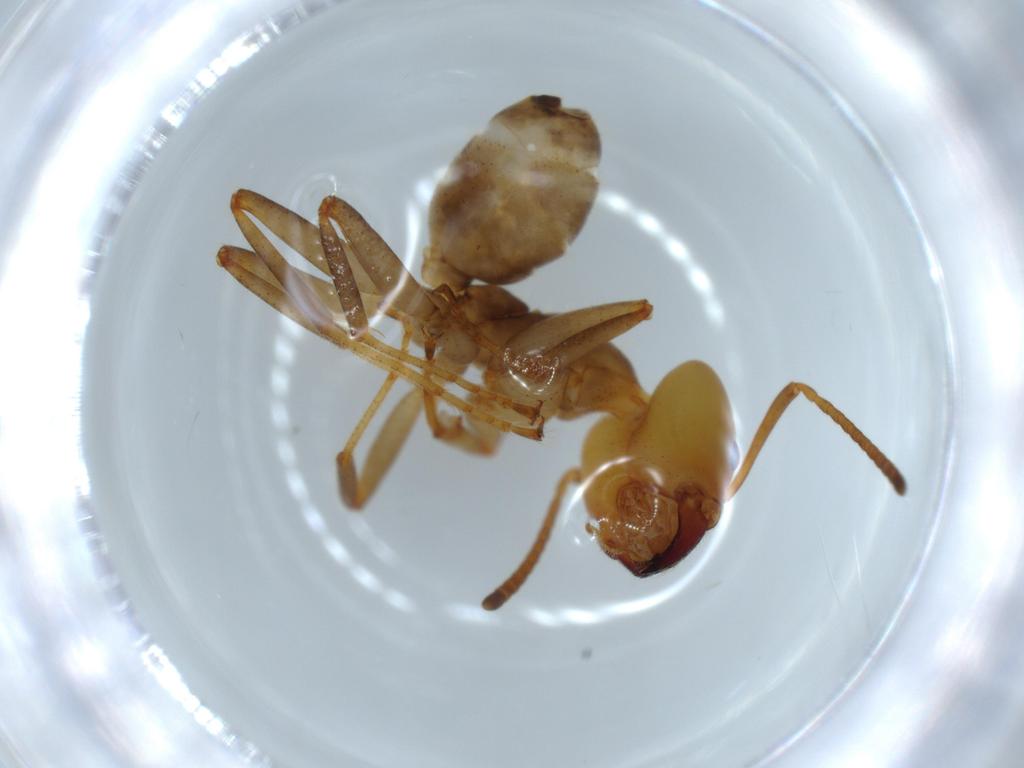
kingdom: Animalia
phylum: Arthropoda
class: Insecta
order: Hymenoptera
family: Formicidae
